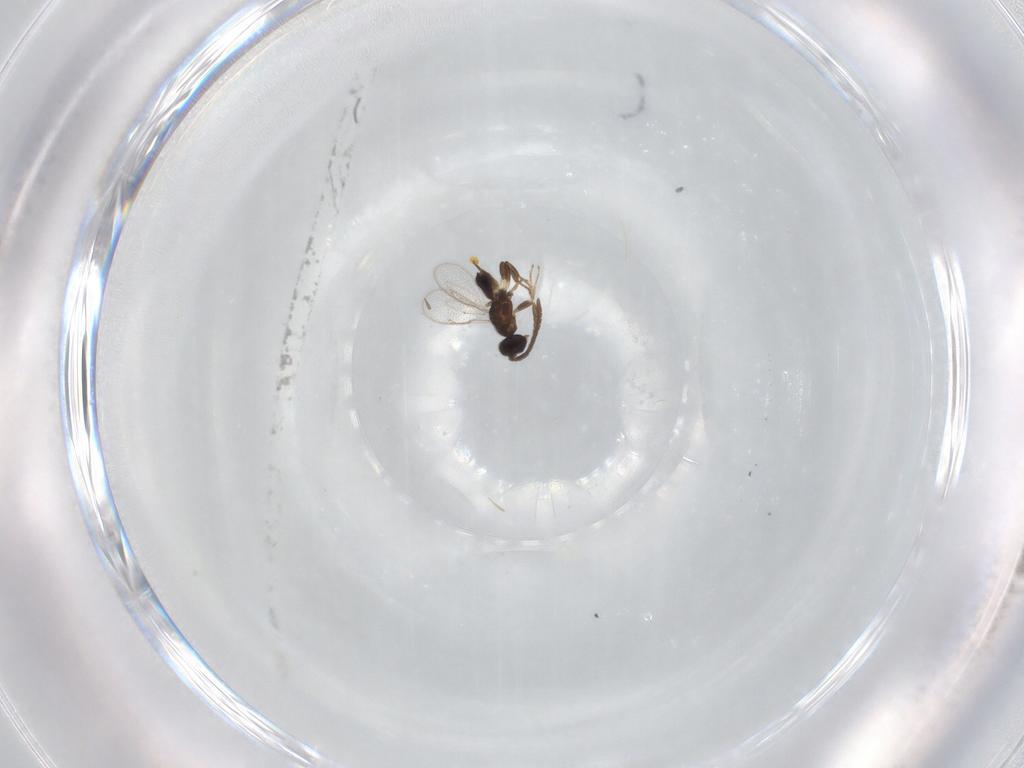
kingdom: Animalia
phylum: Arthropoda
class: Insecta
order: Hymenoptera
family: Eupelmidae
